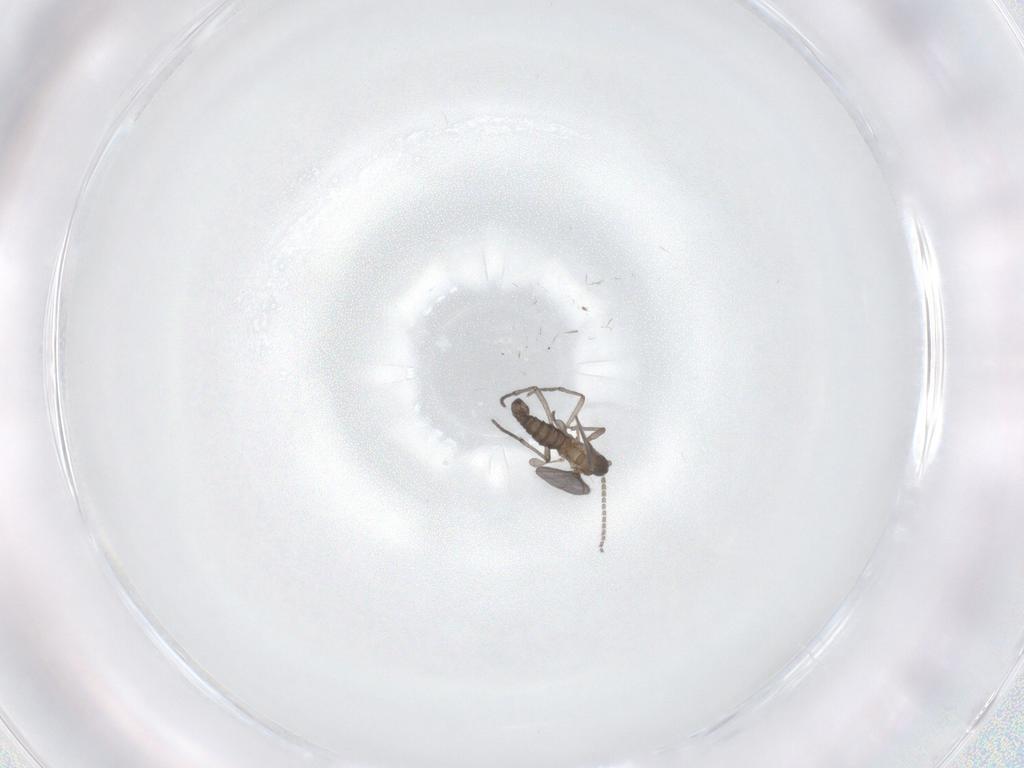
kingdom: Animalia
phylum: Arthropoda
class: Insecta
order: Diptera
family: Sciaridae
